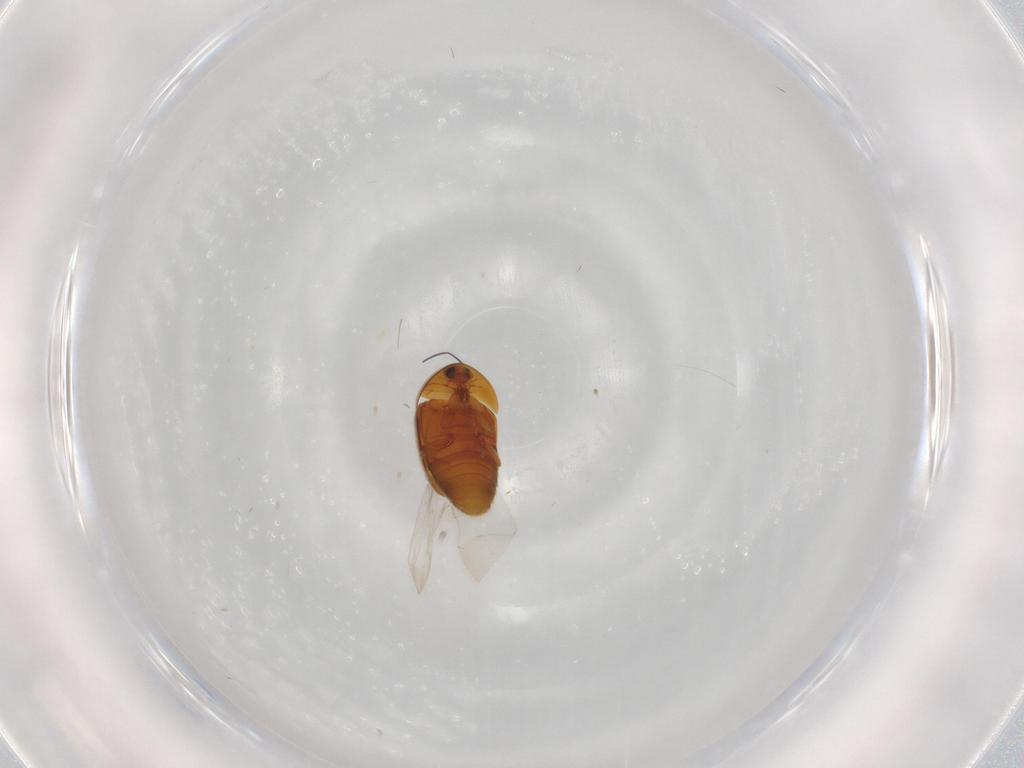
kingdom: Animalia
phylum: Arthropoda
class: Insecta
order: Coleoptera
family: Corylophidae
